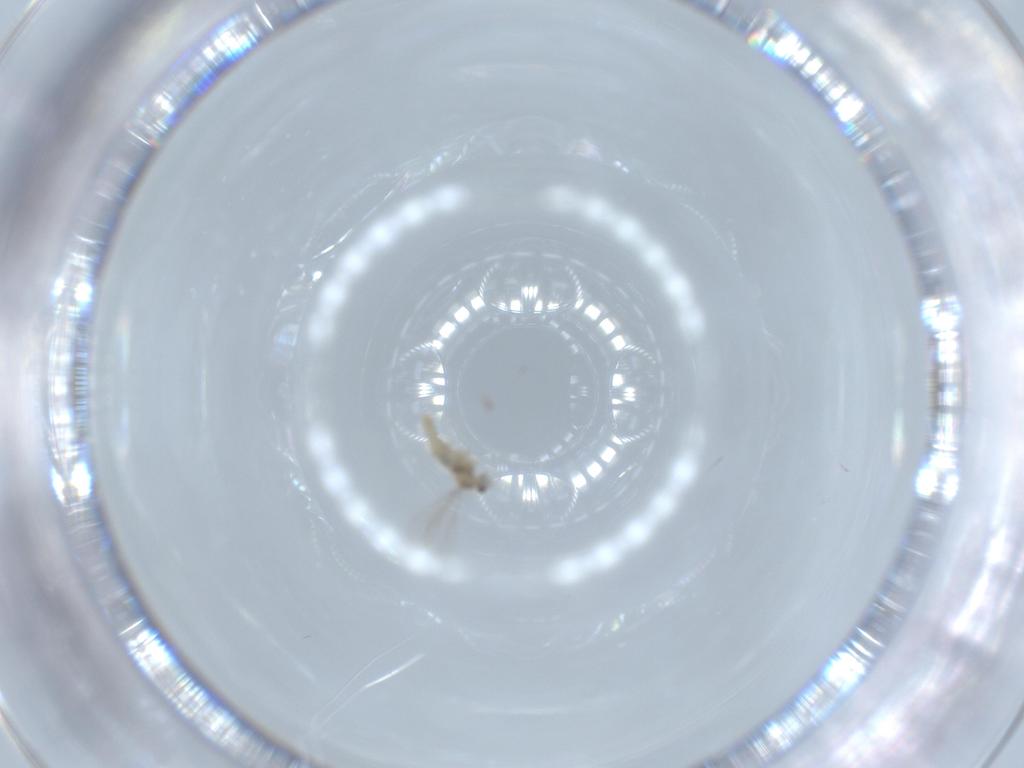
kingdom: Animalia
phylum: Arthropoda
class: Insecta
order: Diptera
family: Cecidomyiidae
